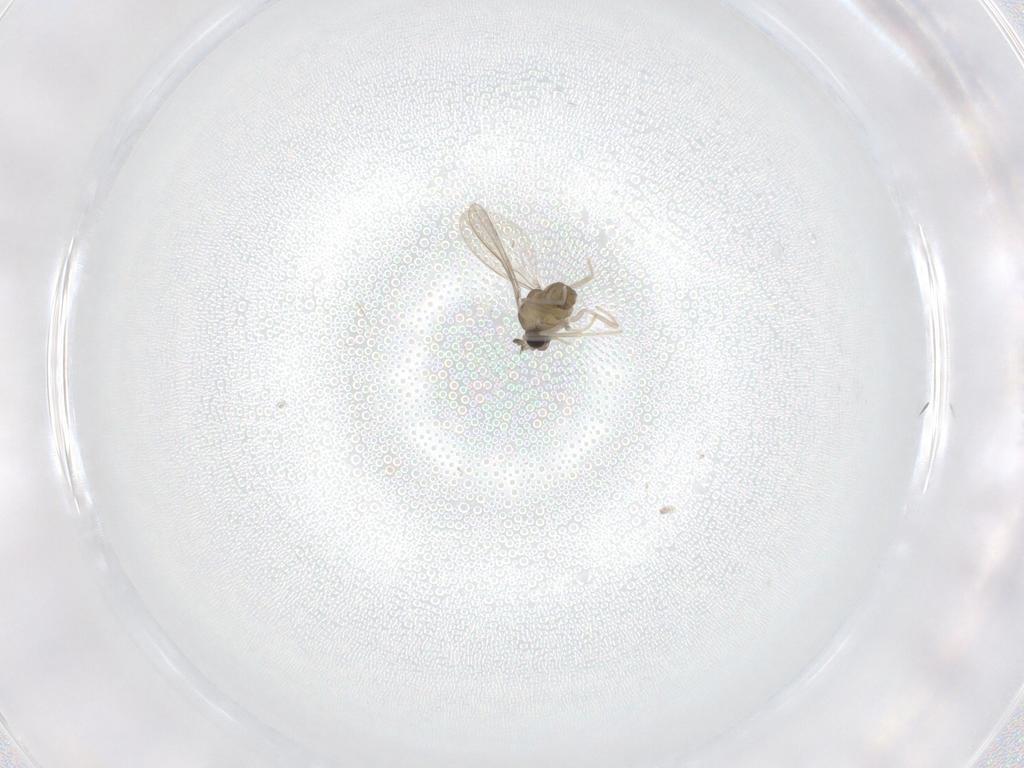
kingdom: Animalia
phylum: Arthropoda
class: Insecta
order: Diptera
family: Cecidomyiidae
